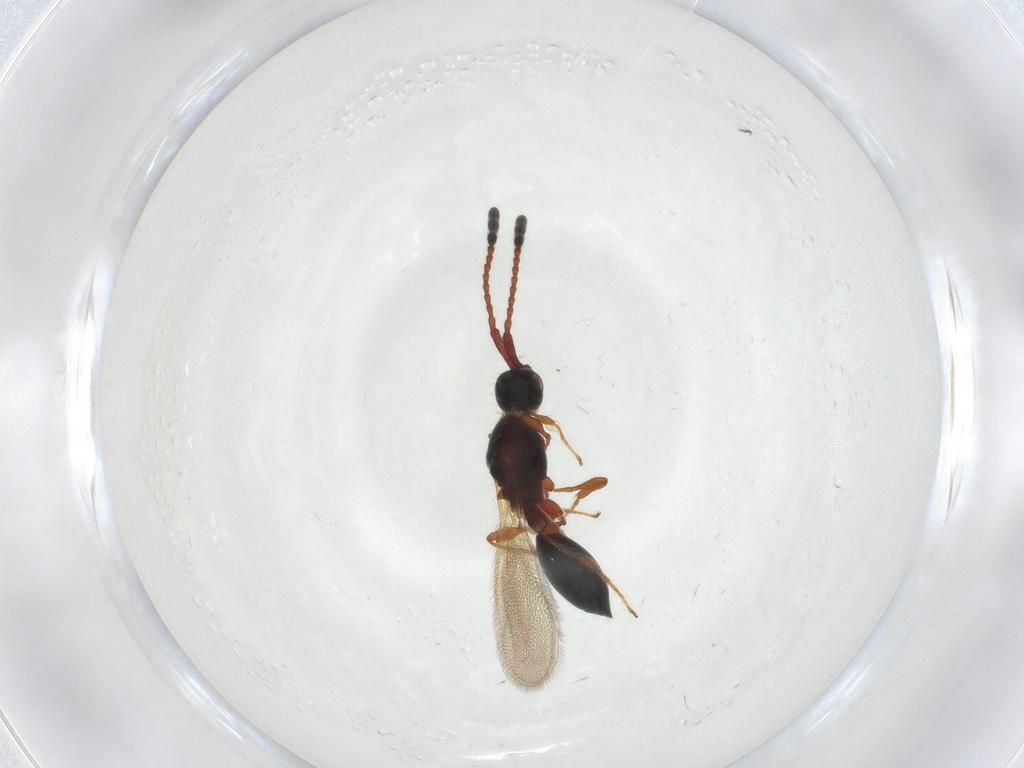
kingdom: Animalia
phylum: Arthropoda
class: Insecta
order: Hymenoptera
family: Diapriidae
